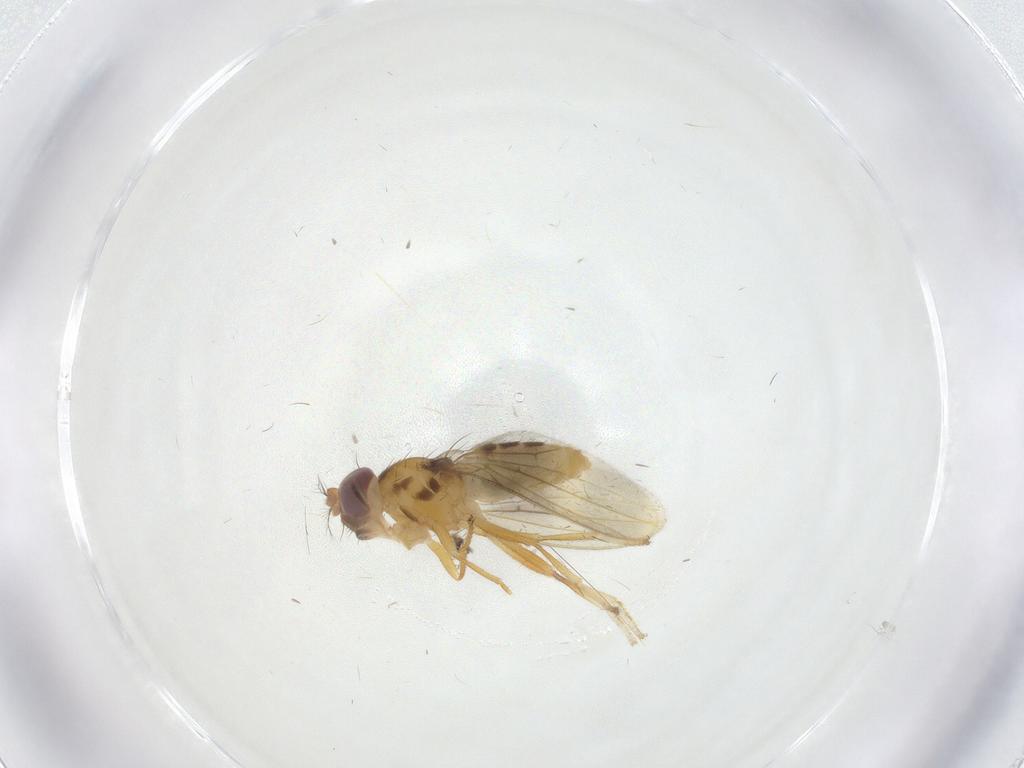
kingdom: Animalia
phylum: Arthropoda
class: Insecta
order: Diptera
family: Periscelididae
